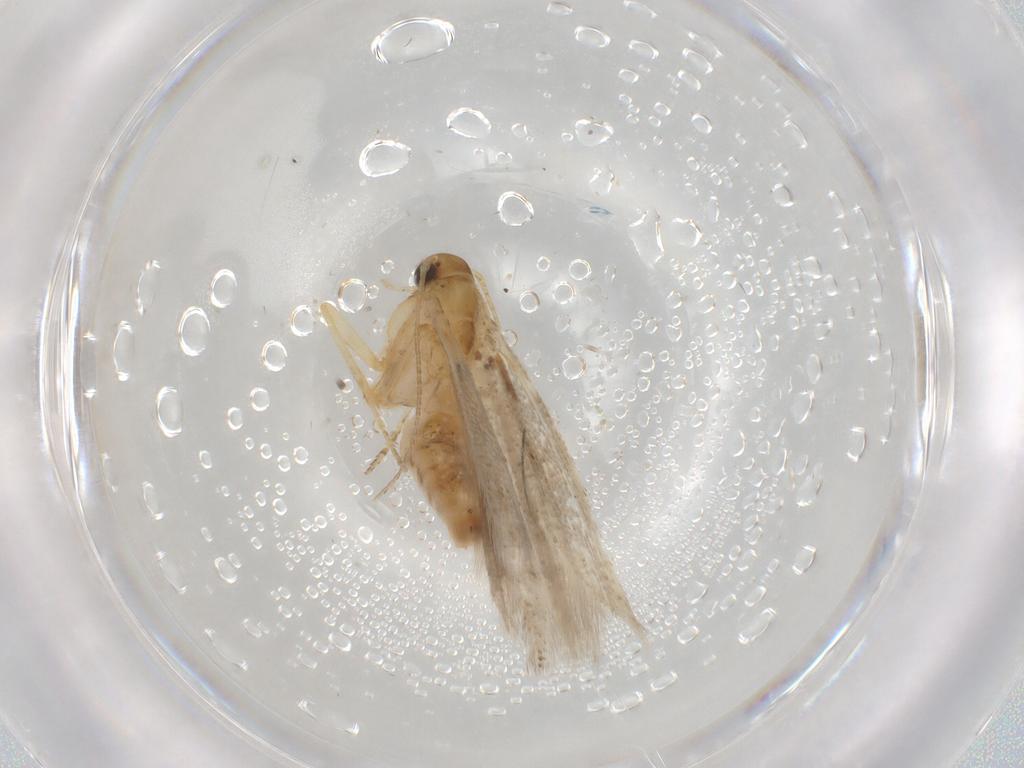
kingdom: Animalia
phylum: Arthropoda
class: Insecta
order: Lepidoptera
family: Gelechiidae
